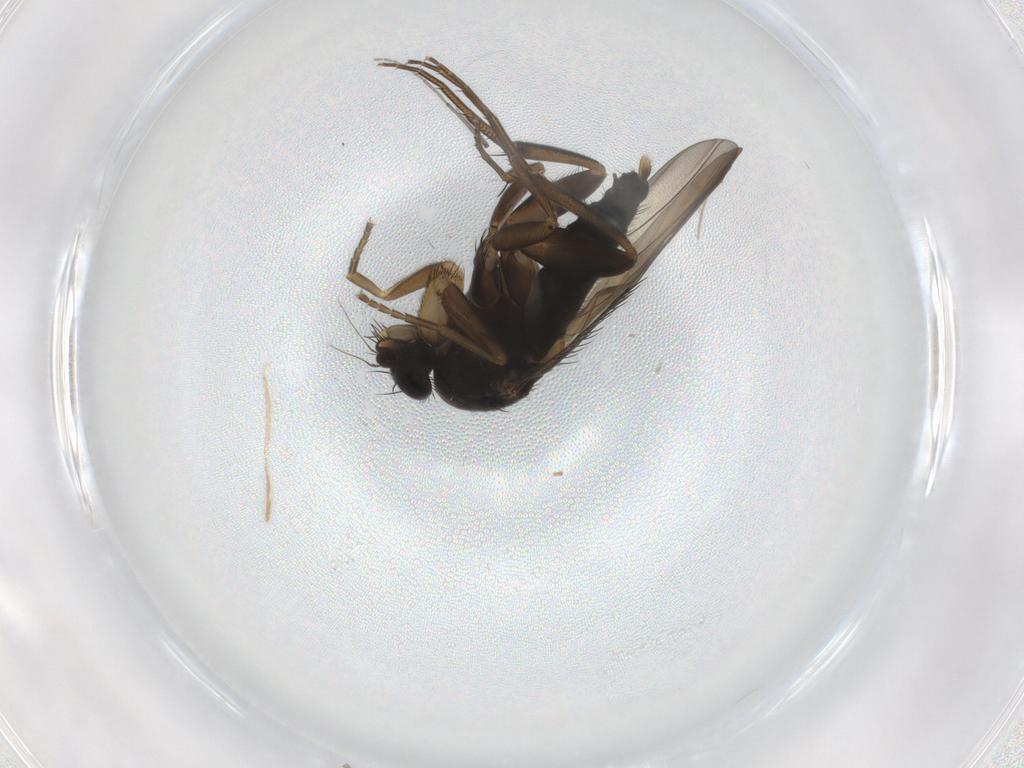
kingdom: Animalia
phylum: Arthropoda
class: Insecta
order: Diptera
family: Phoridae
